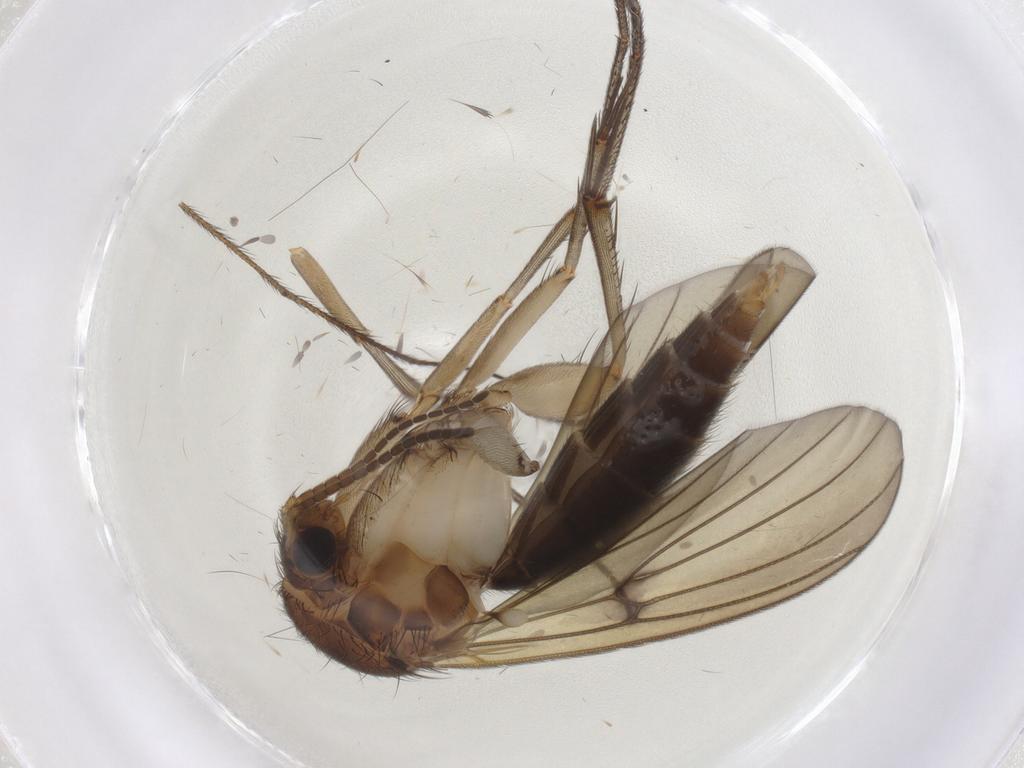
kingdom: Animalia
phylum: Arthropoda
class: Insecta
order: Diptera
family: Mycetophilidae
